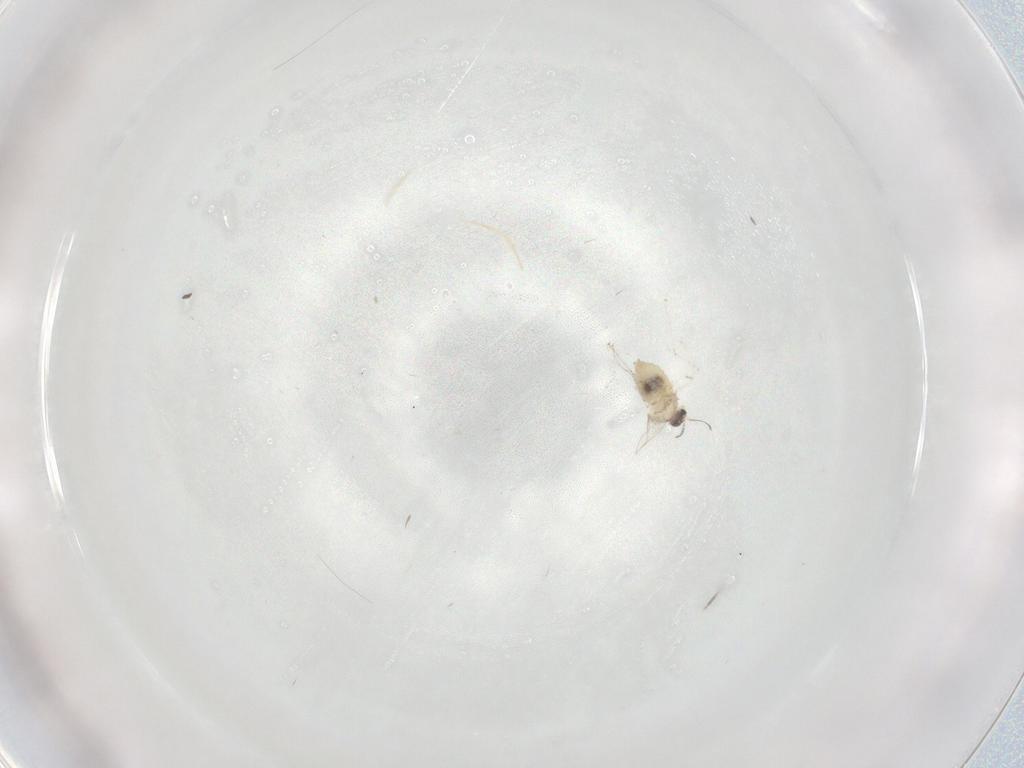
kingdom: Animalia
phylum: Arthropoda
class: Insecta
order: Diptera
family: Cecidomyiidae
